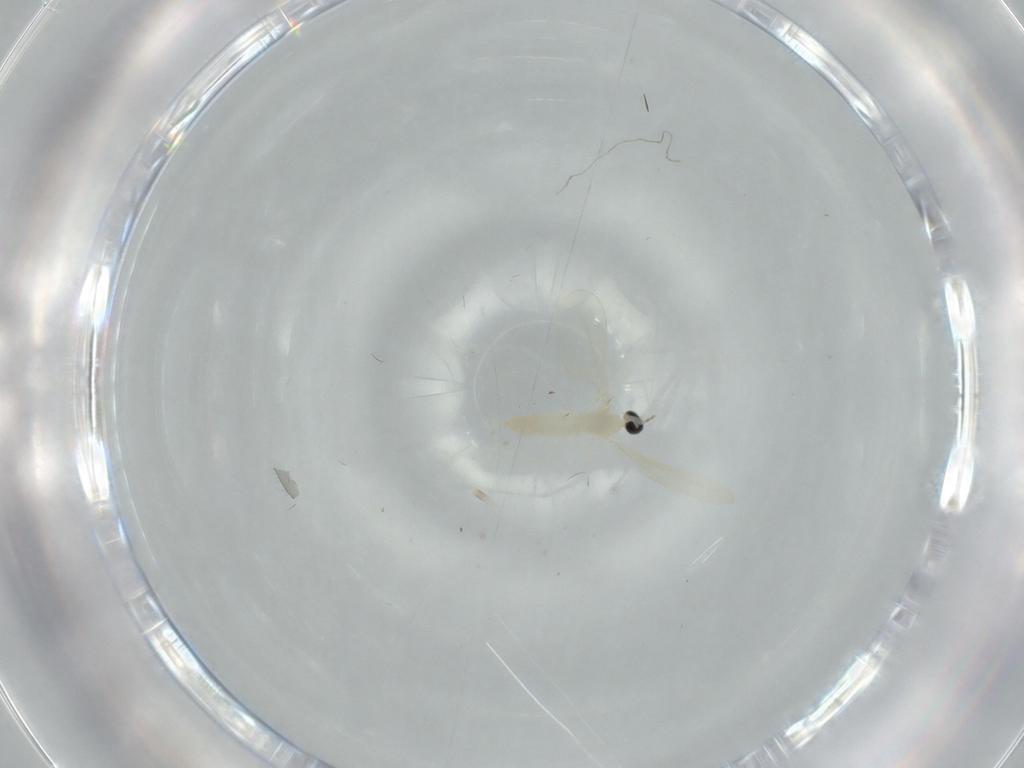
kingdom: Animalia
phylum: Arthropoda
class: Insecta
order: Diptera
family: Cecidomyiidae
